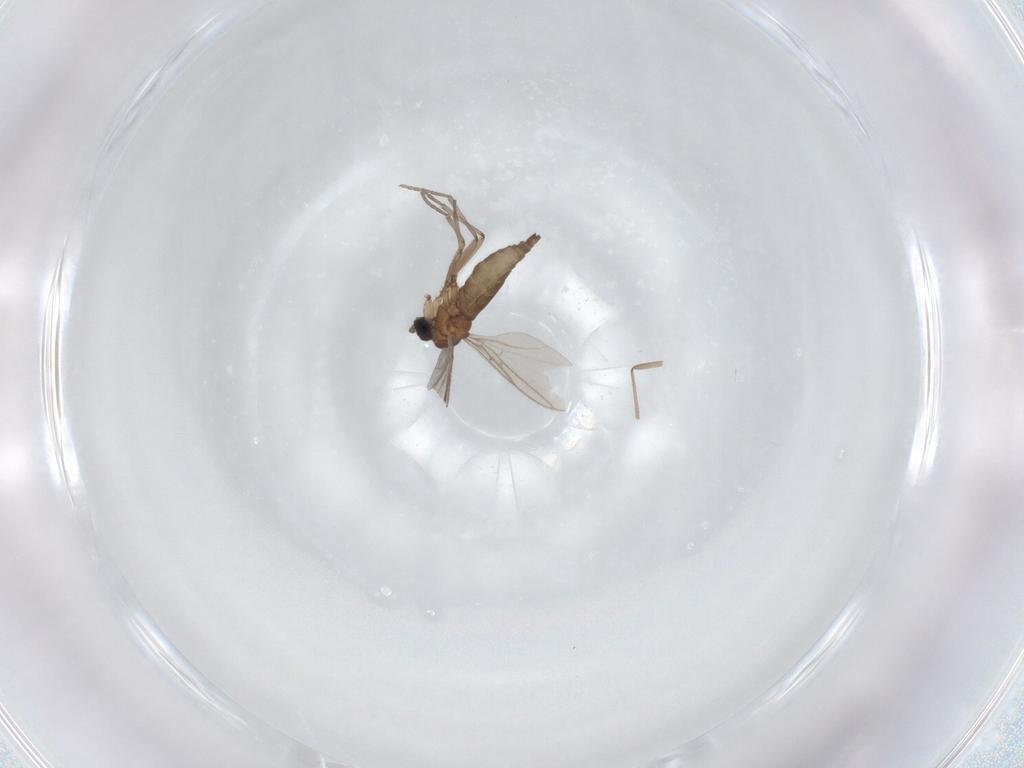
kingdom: Animalia
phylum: Arthropoda
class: Insecta
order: Diptera
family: Cecidomyiidae
